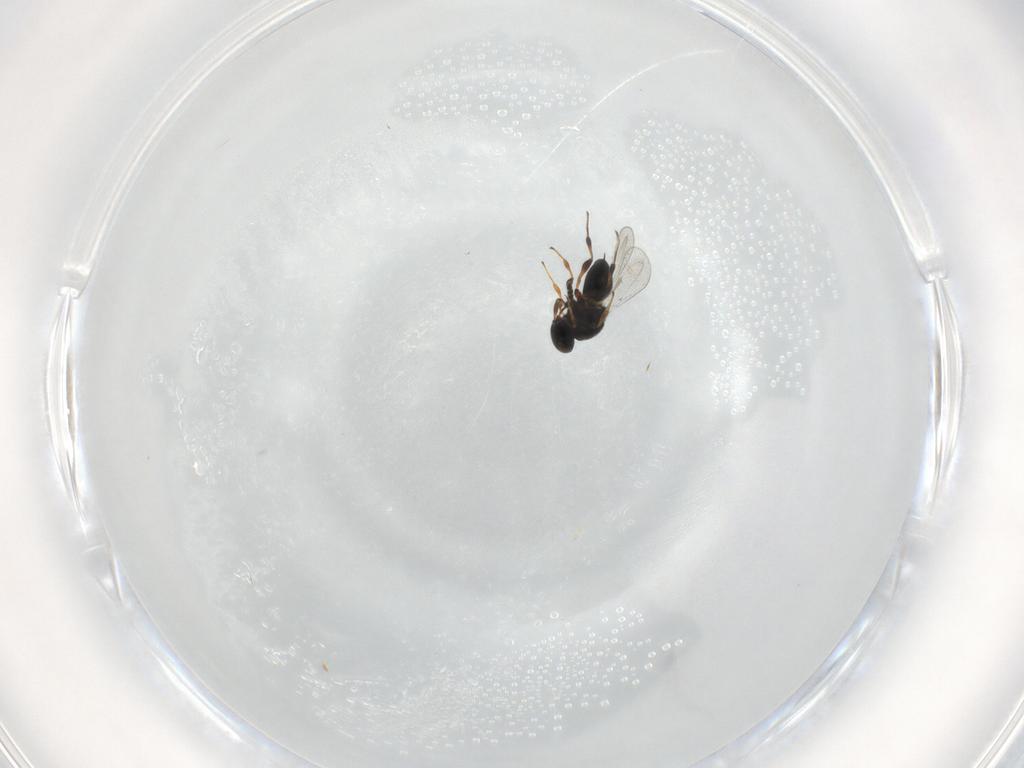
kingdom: Animalia
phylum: Arthropoda
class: Insecta
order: Hymenoptera
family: Platygastridae
